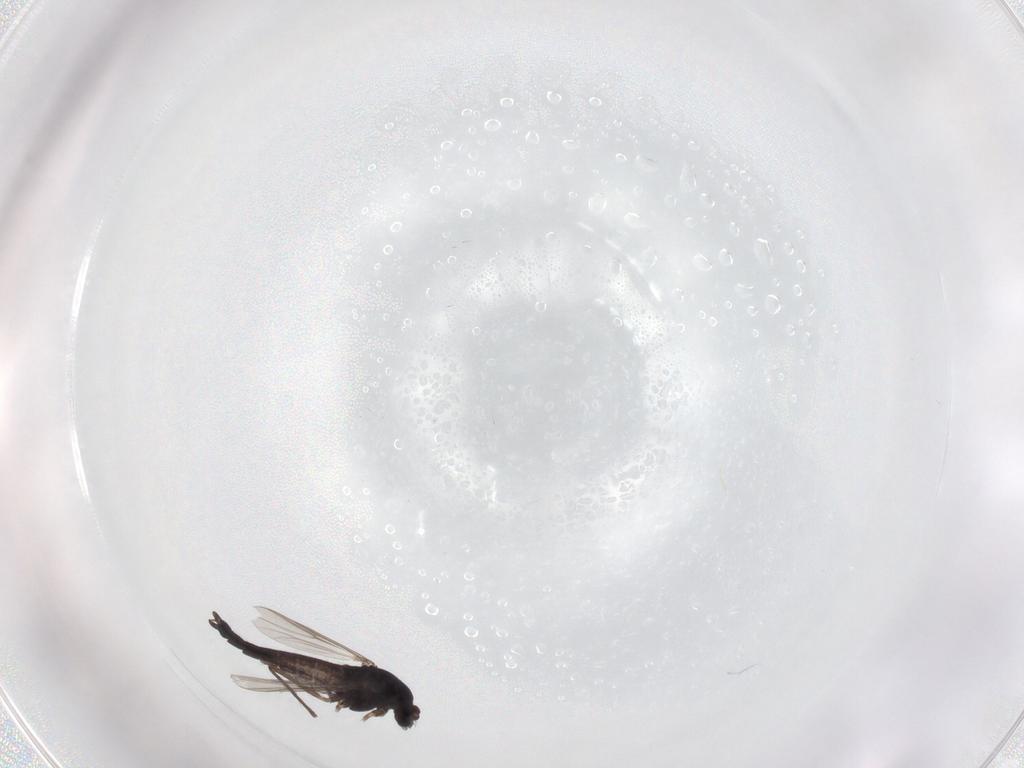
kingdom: Animalia
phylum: Arthropoda
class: Insecta
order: Diptera
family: Chironomidae
